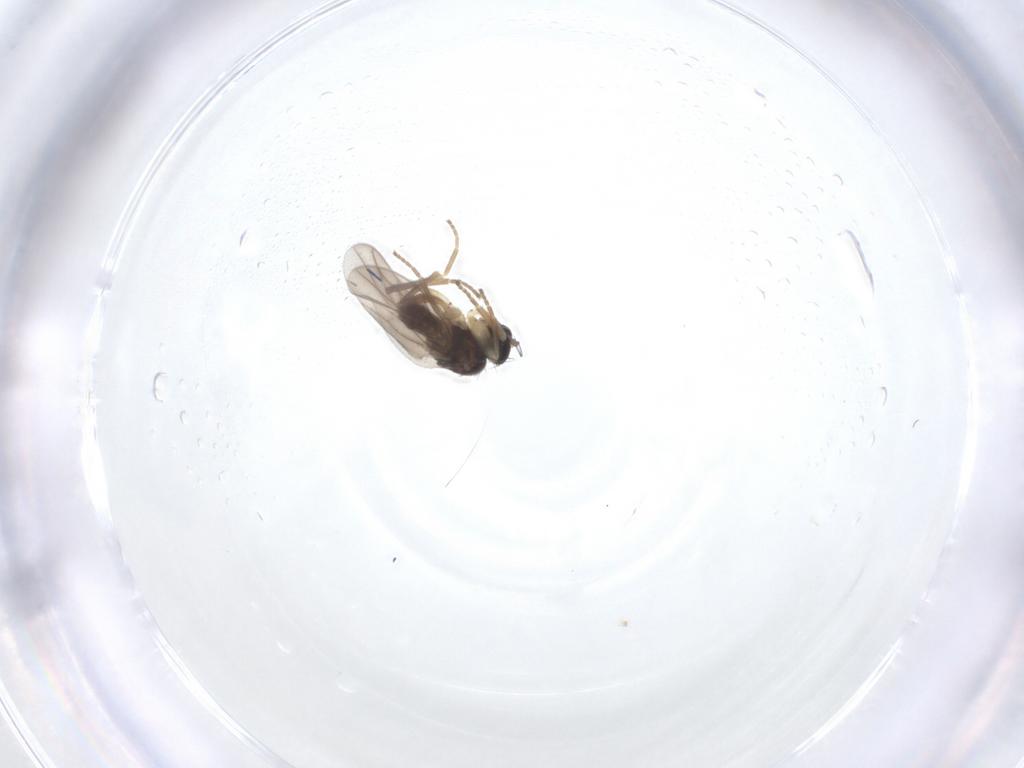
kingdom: Animalia
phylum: Arthropoda
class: Insecta
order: Diptera
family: Hybotidae
